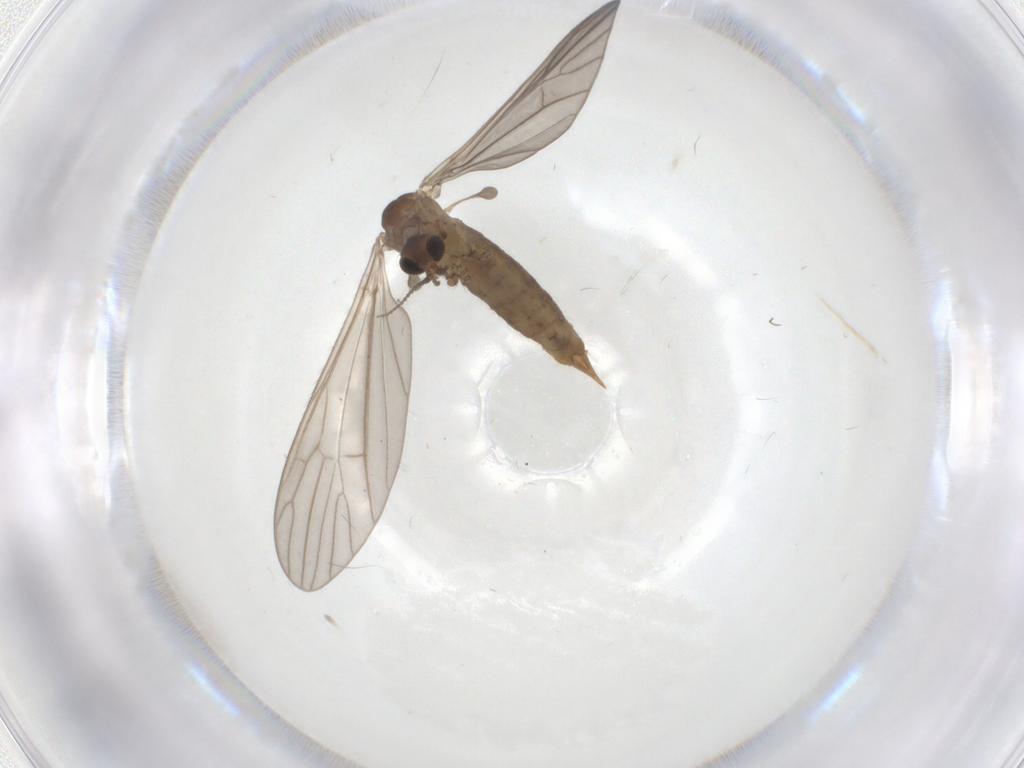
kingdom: Animalia
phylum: Arthropoda
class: Insecta
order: Diptera
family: Limoniidae
